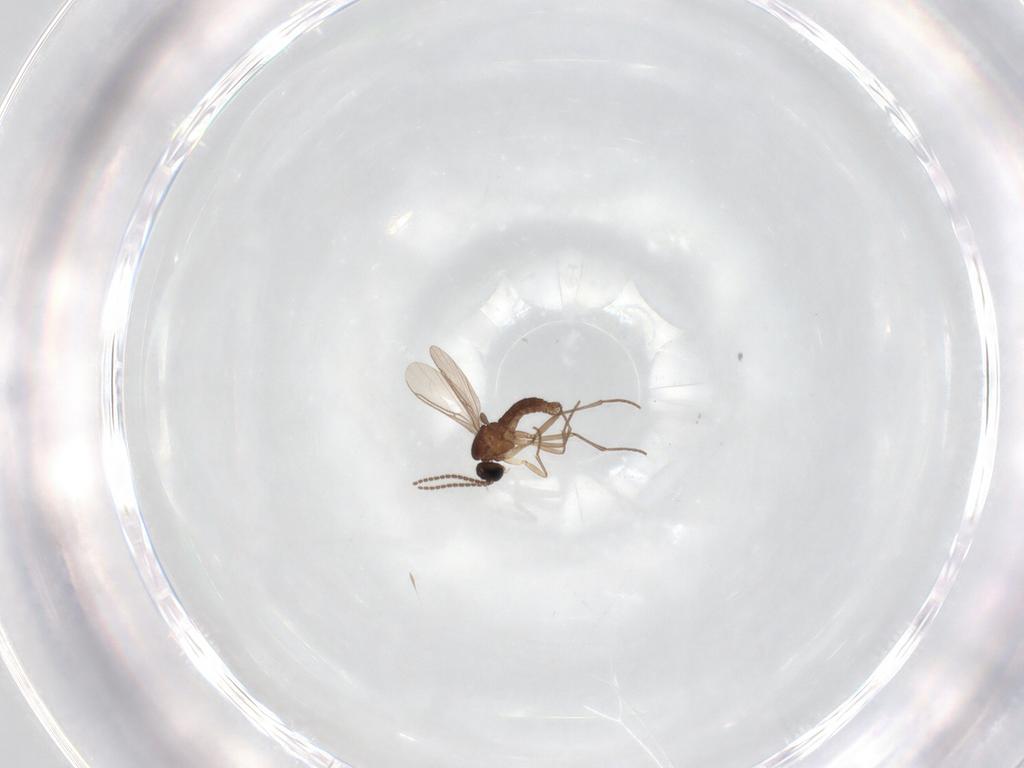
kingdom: Animalia
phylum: Arthropoda
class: Insecta
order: Diptera
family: Sciaridae
